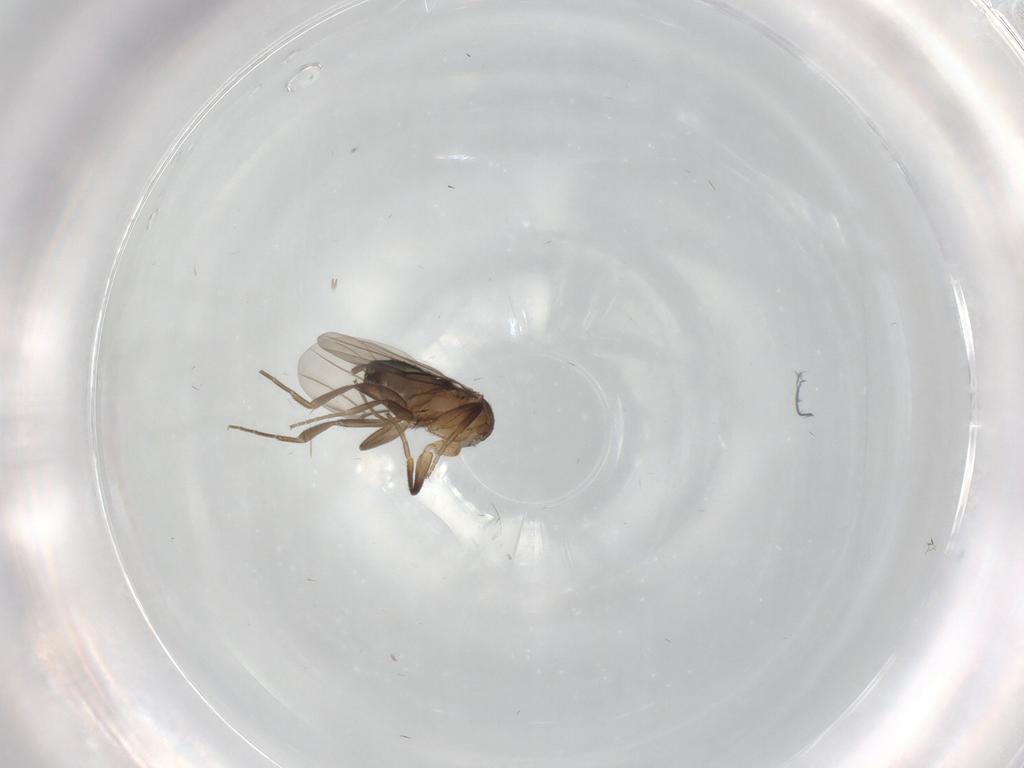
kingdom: Animalia
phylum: Arthropoda
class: Insecta
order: Diptera
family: Phoridae
